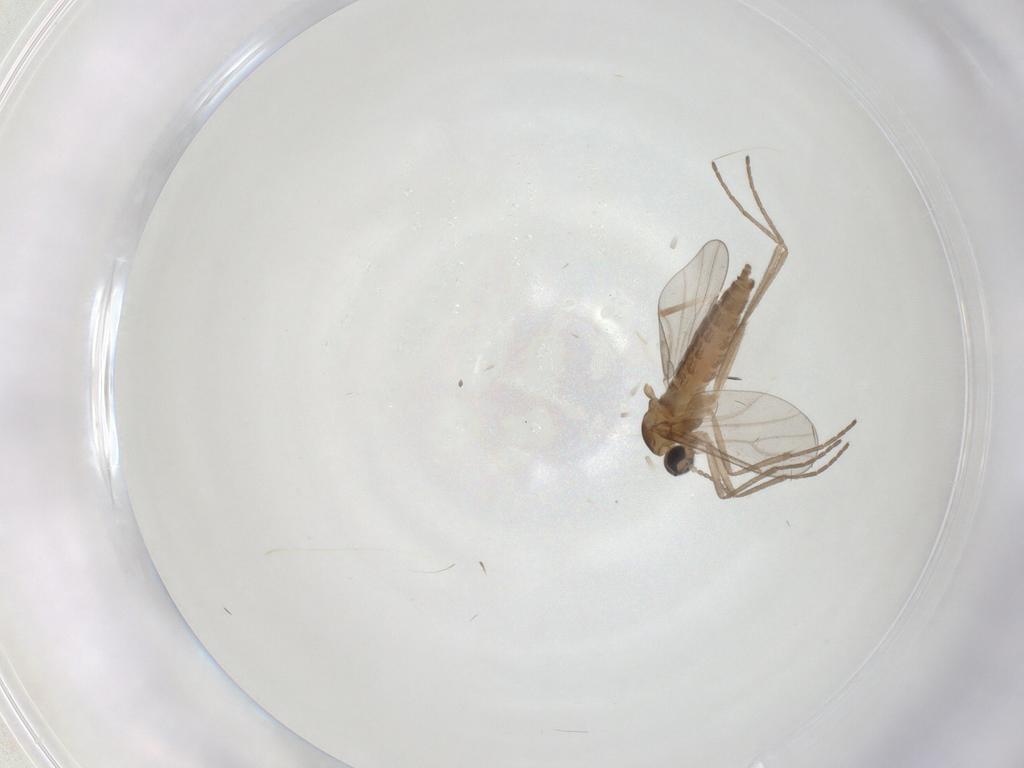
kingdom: Animalia
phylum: Arthropoda
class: Insecta
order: Diptera
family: Cecidomyiidae
